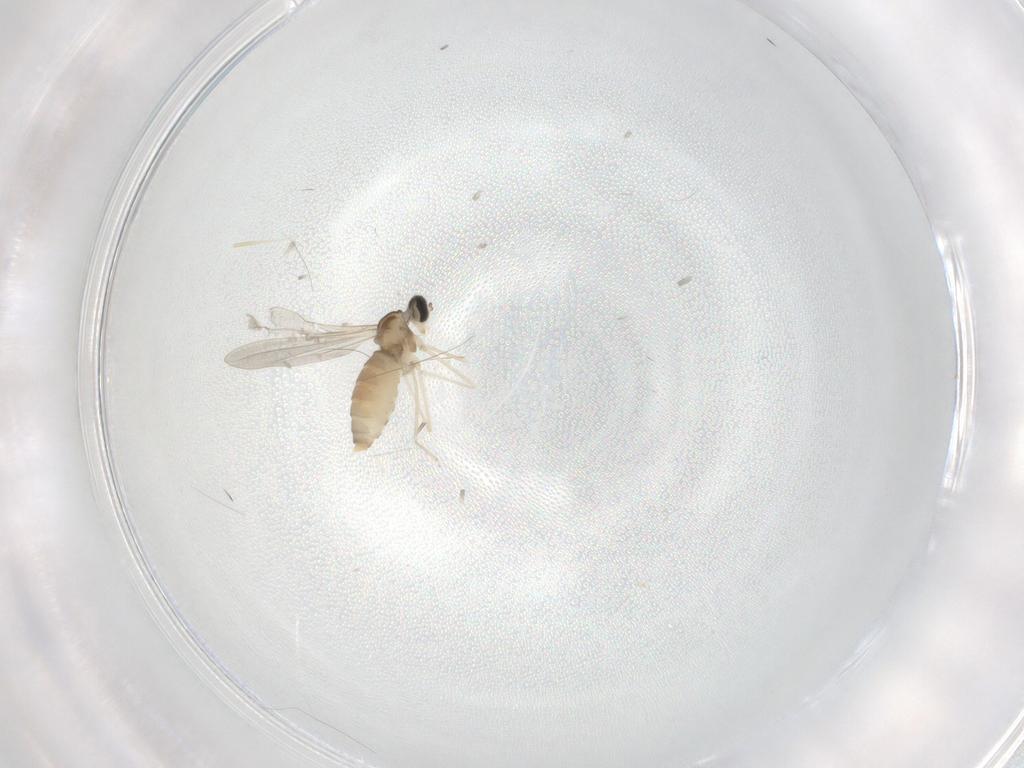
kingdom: Animalia
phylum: Arthropoda
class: Insecta
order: Diptera
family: Cecidomyiidae
